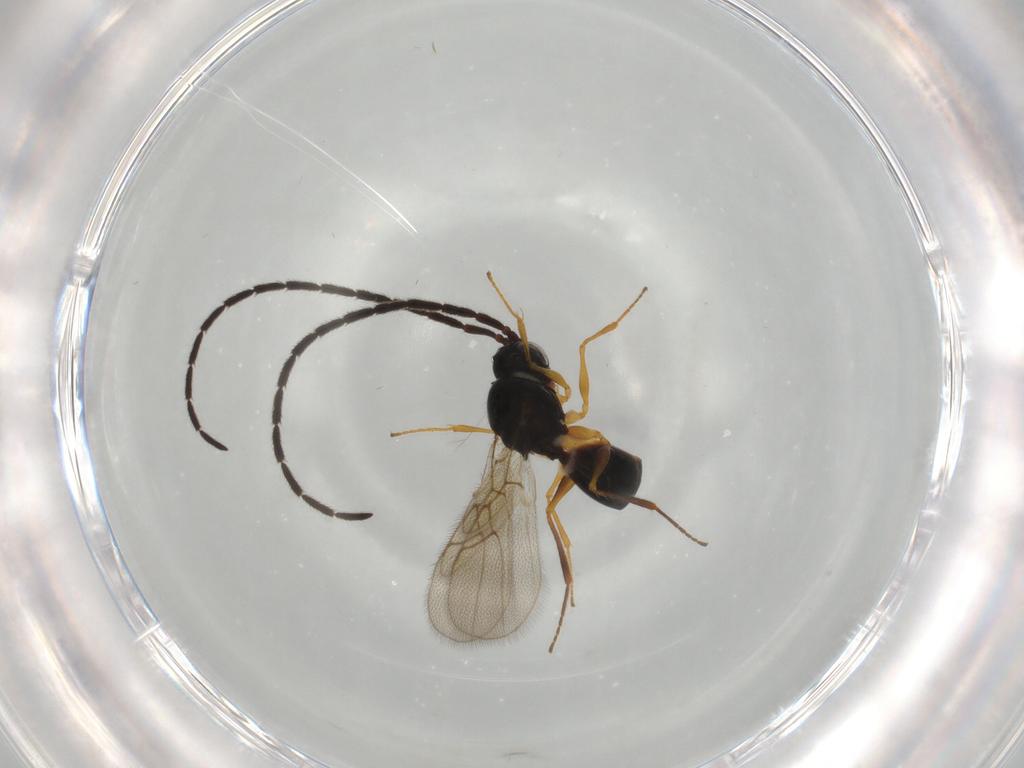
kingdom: Animalia
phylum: Arthropoda
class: Insecta
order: Hymenoptera
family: Figitidae
